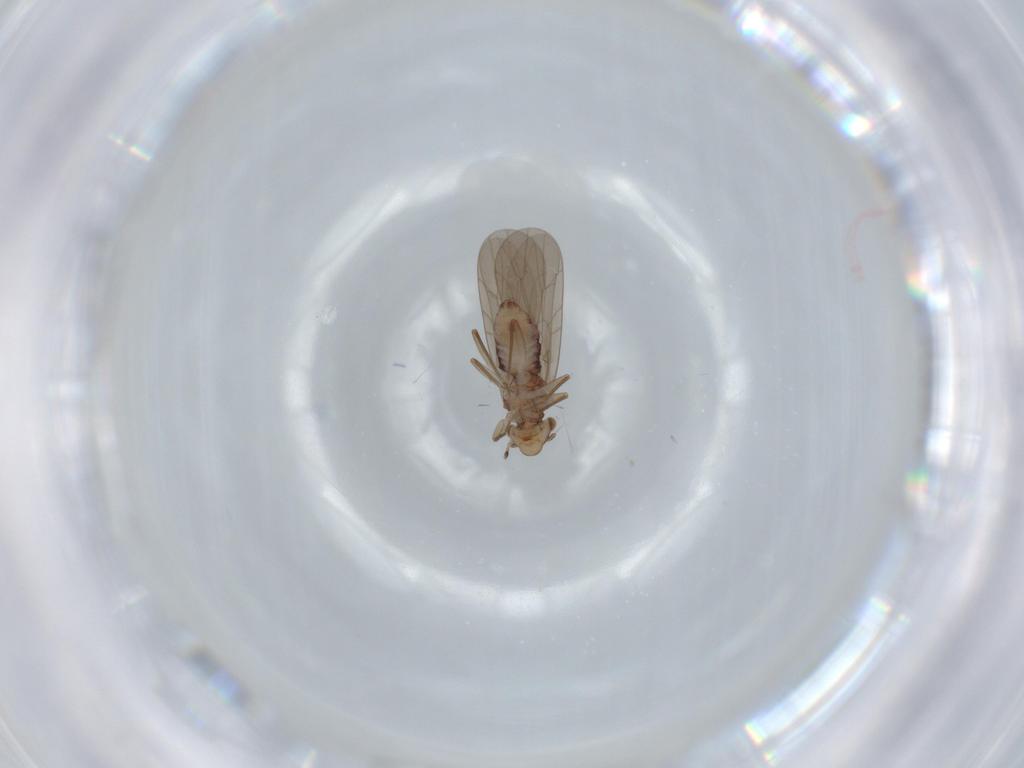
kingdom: Animalia
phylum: Arthropoda
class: Insecta
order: Psocodea
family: Liposcelididae
